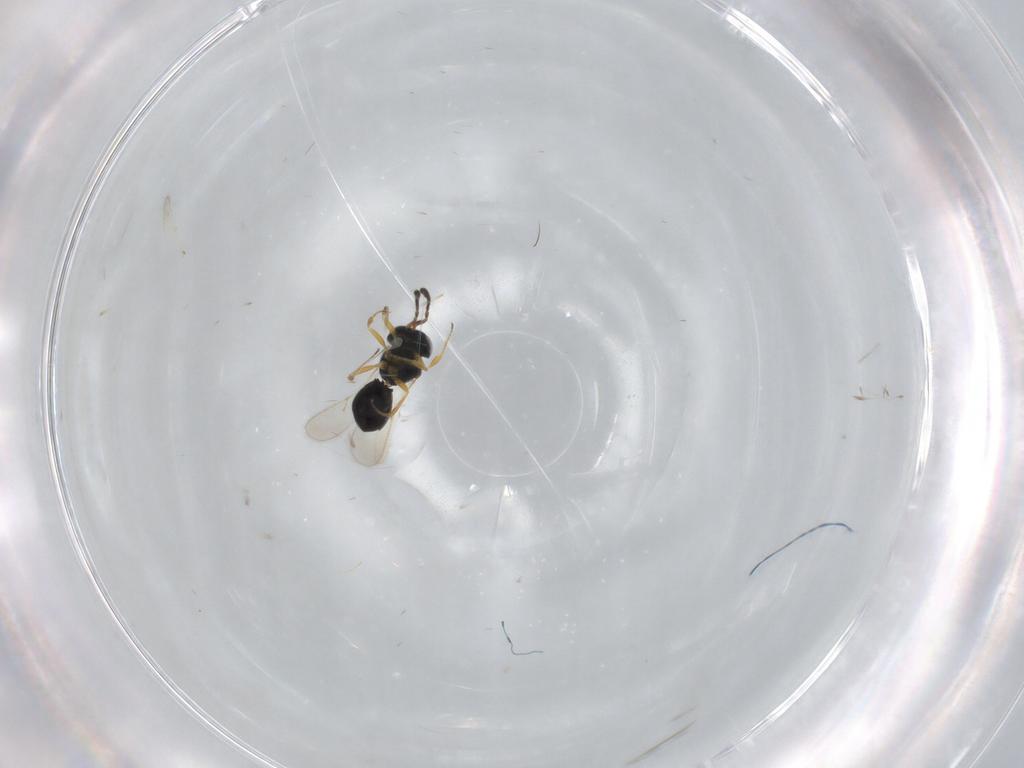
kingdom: Animalia
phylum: Arthropoda
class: Insecta
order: Hymenoptera
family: Scelionidae
